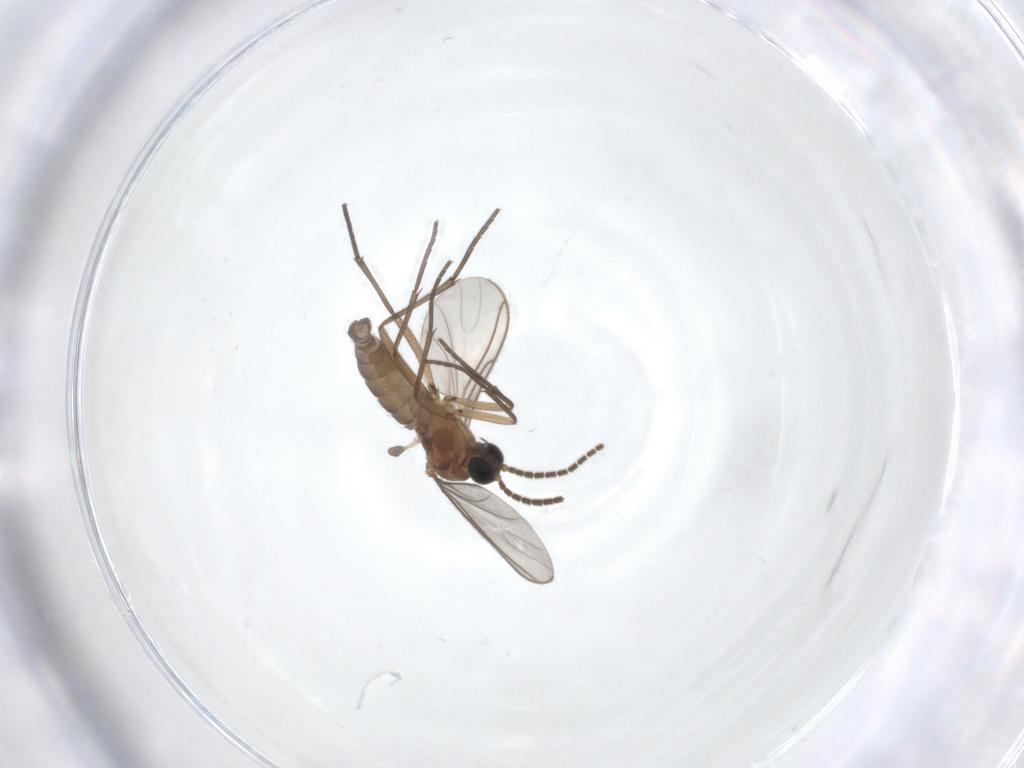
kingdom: Animalia
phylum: Arthropoda
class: Insecta
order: Diptera
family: Sciaridae
